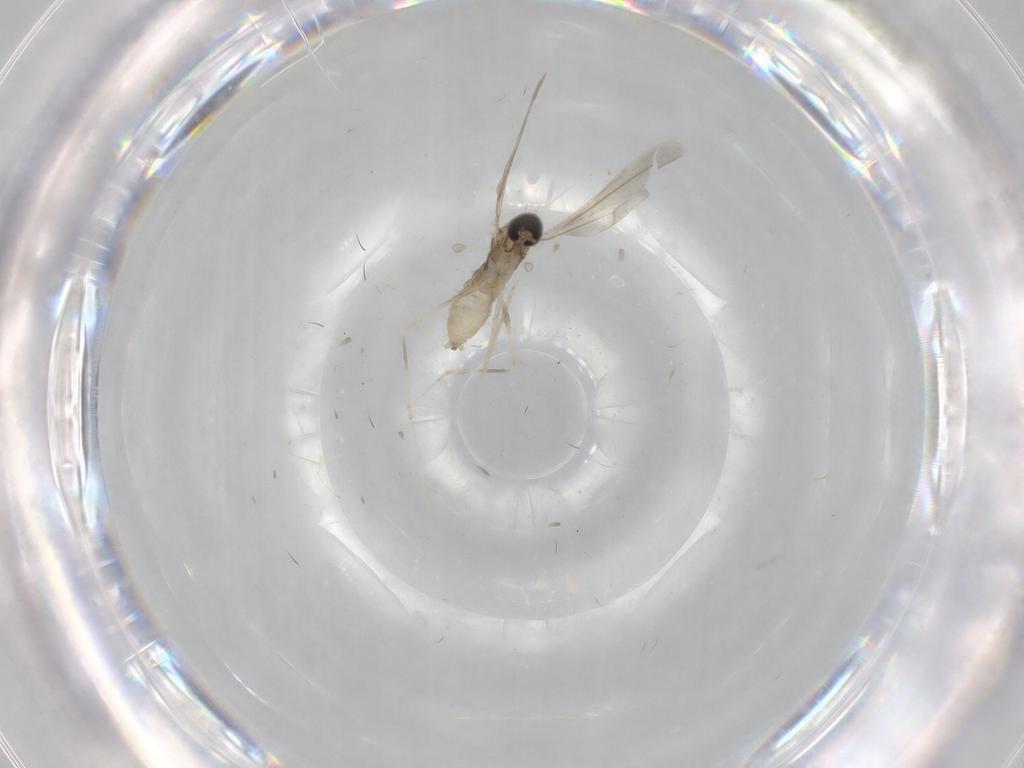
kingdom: Animalia
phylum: Arthropoda
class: Insecta
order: Diptera
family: Cecidomyiidae
